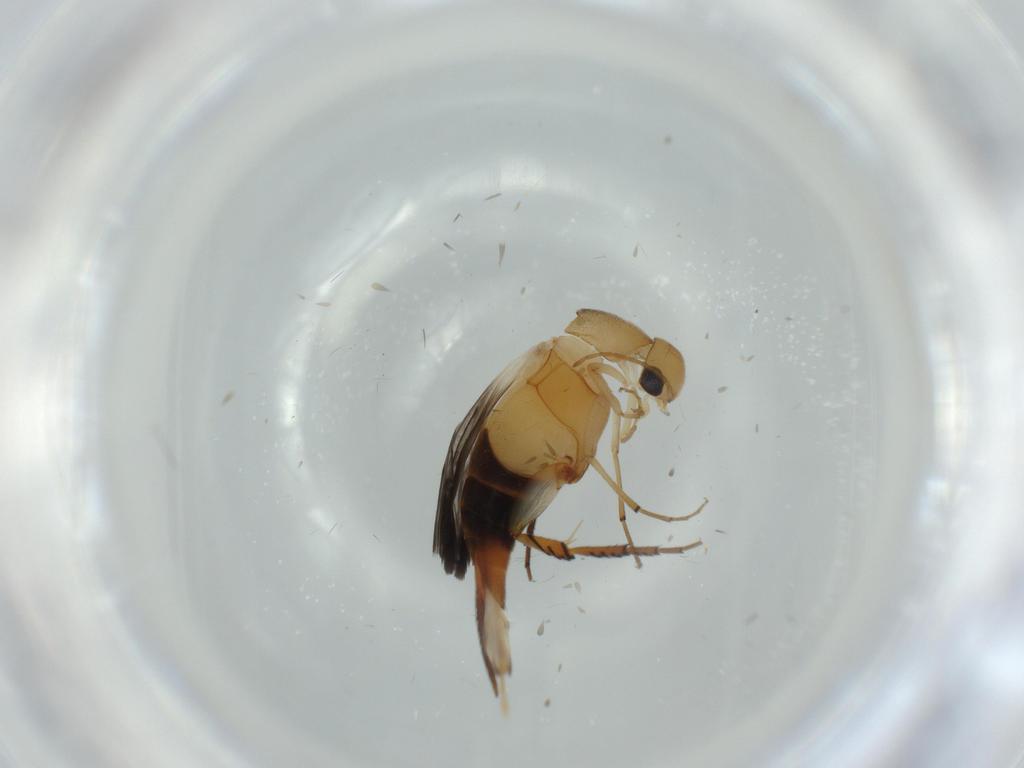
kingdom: Animalia
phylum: Arthropoda
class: Insecta
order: Coleoptera
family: Mordellidae
